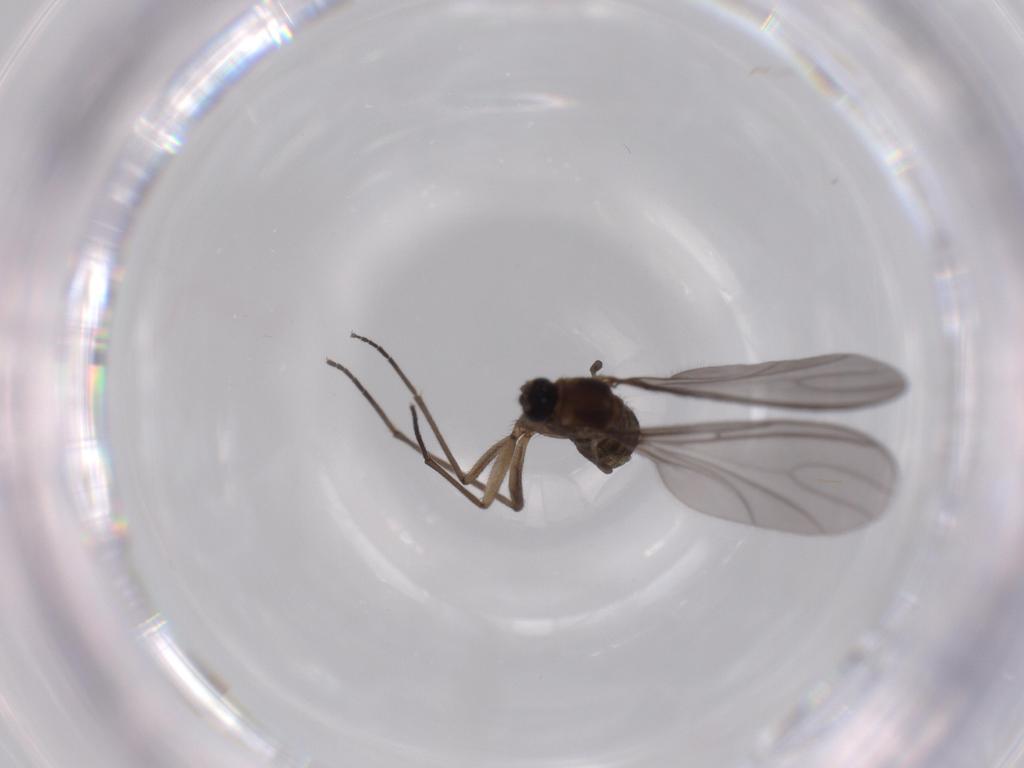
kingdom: Animalia
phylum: Arthropoda
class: Insecta
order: Diptera
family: Sciaridae
